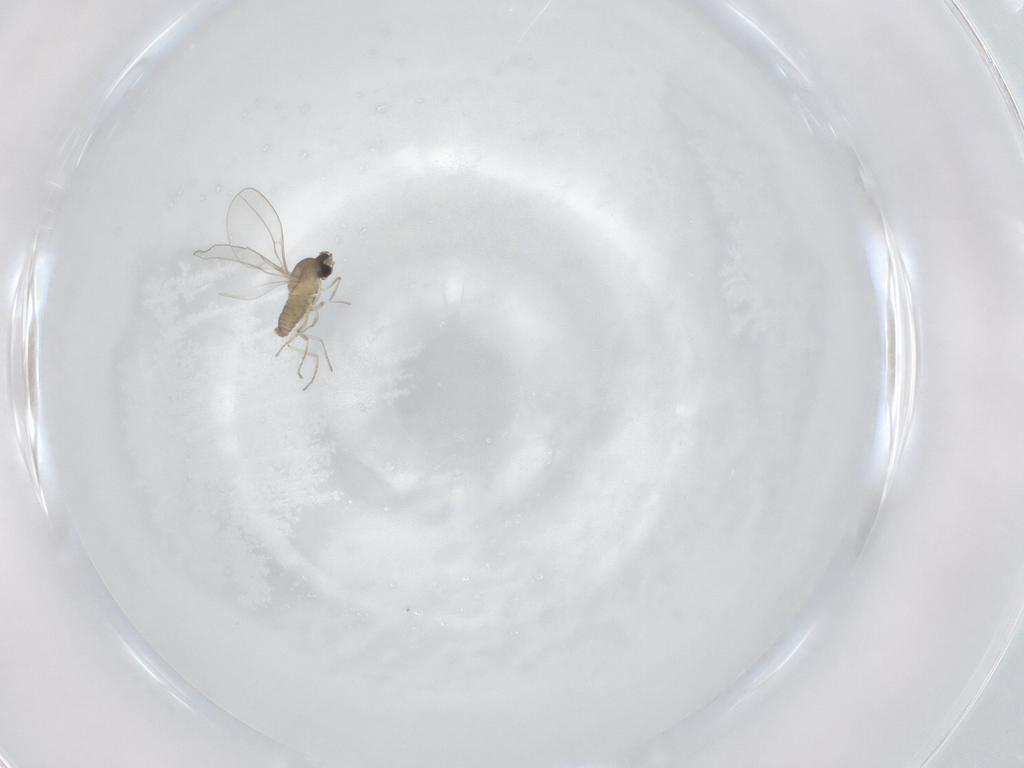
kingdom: Animalia
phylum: Arthropoda
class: Insecta
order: Diptera
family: Cecidomyiidae
